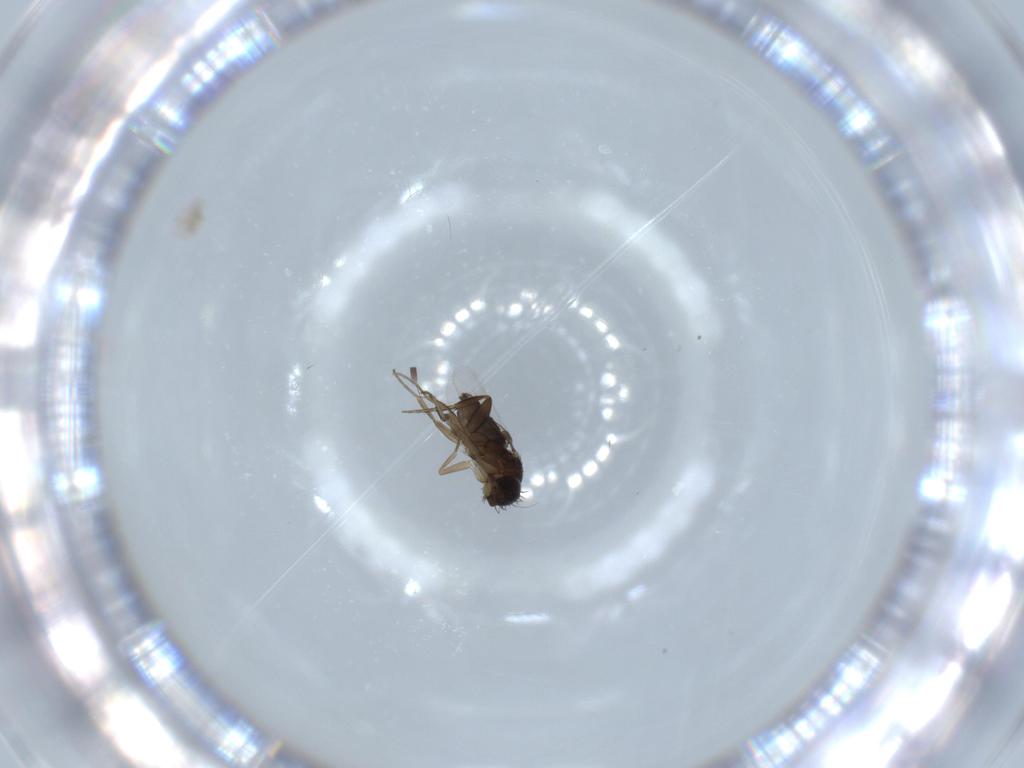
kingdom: Animalia
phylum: Arthropoda
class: Insecta
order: Diptera
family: Phoridae
